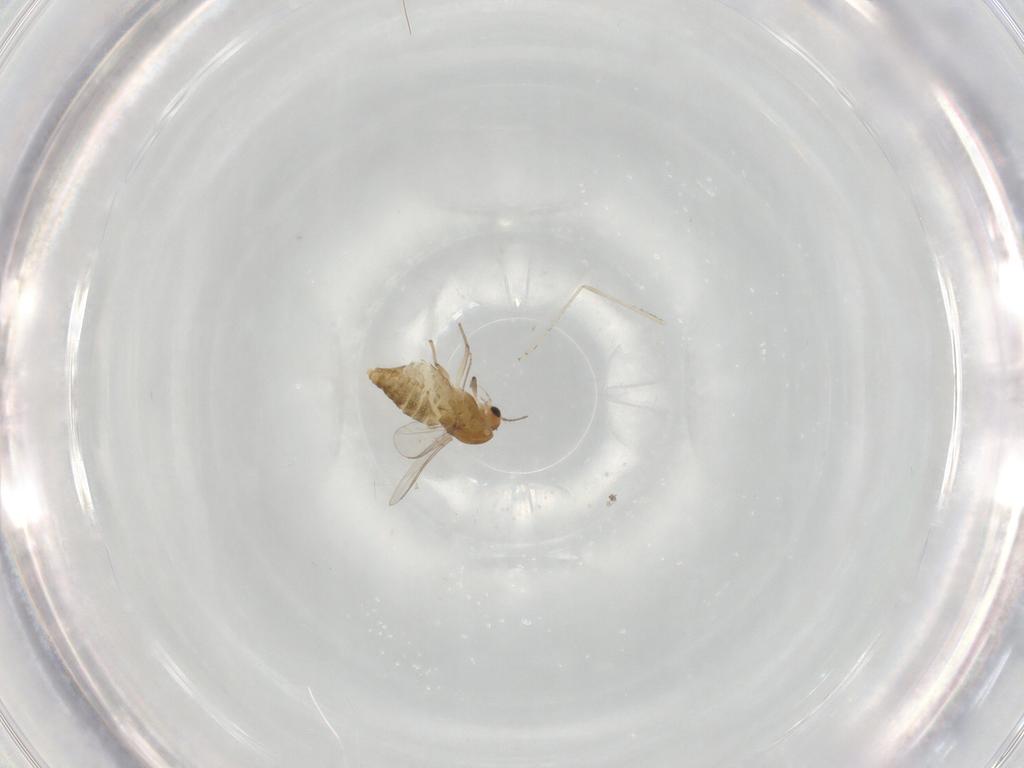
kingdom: Animalia
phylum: Arthropoda
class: Insecta
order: Diptera
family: Chironomidae
